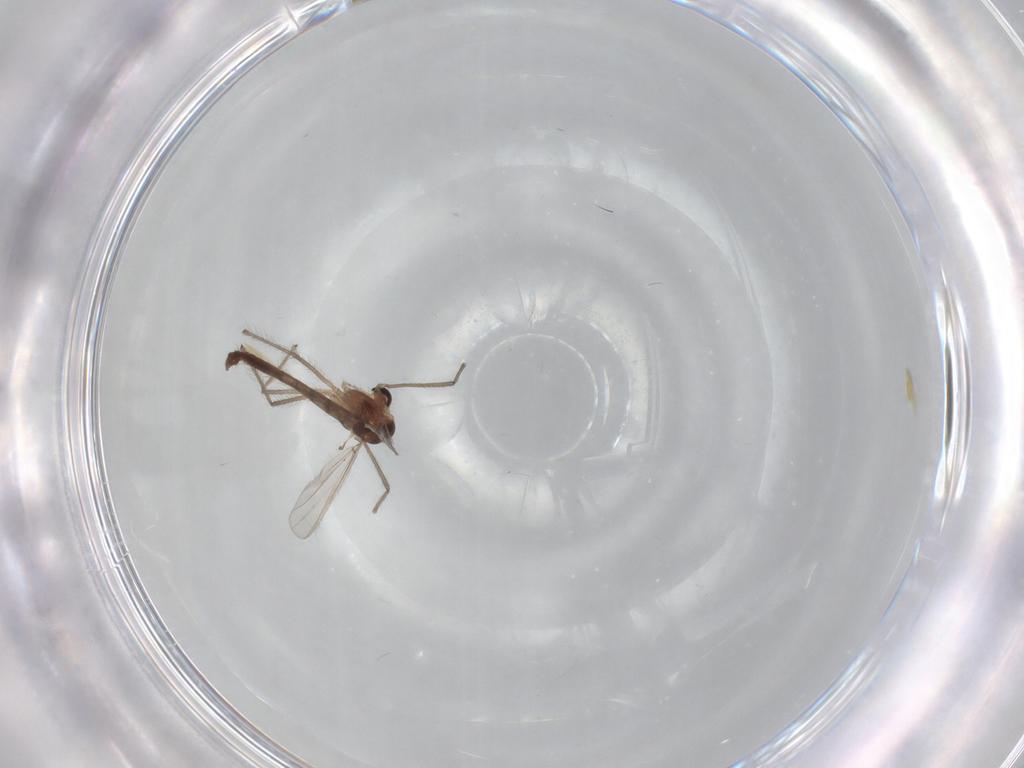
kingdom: Animalia
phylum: Arthropoda
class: Insecta
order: Diptera
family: Chironomidae
